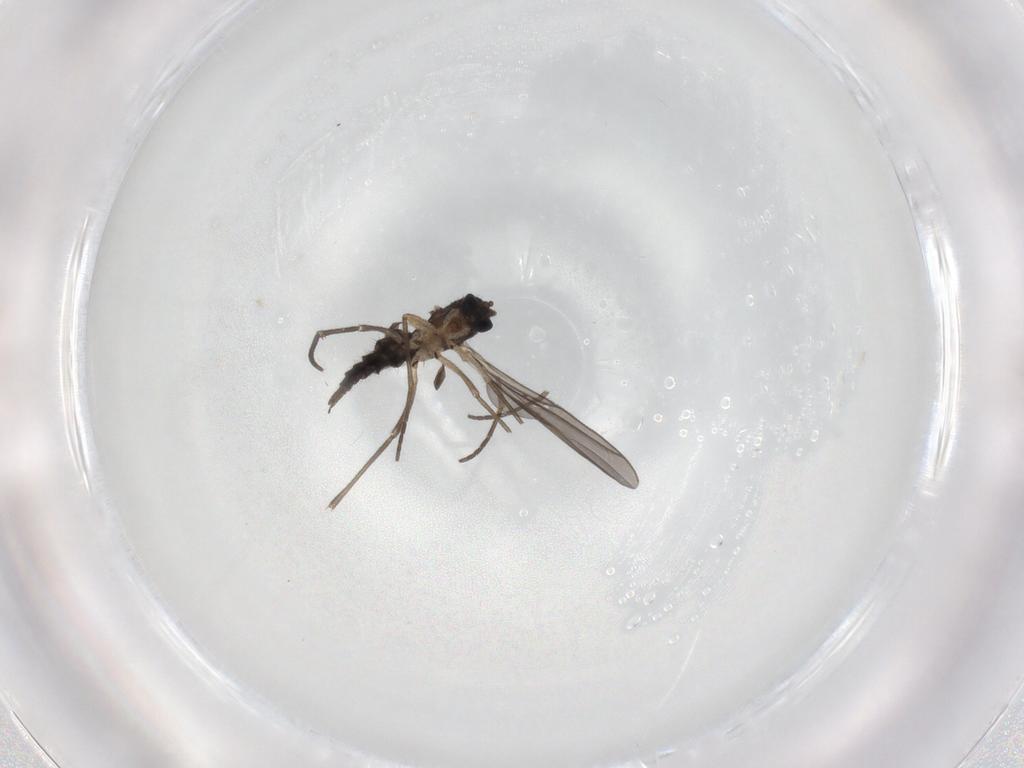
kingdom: Animalia
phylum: Arthropoda
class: Insecta
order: Diptera
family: Sciaridae
